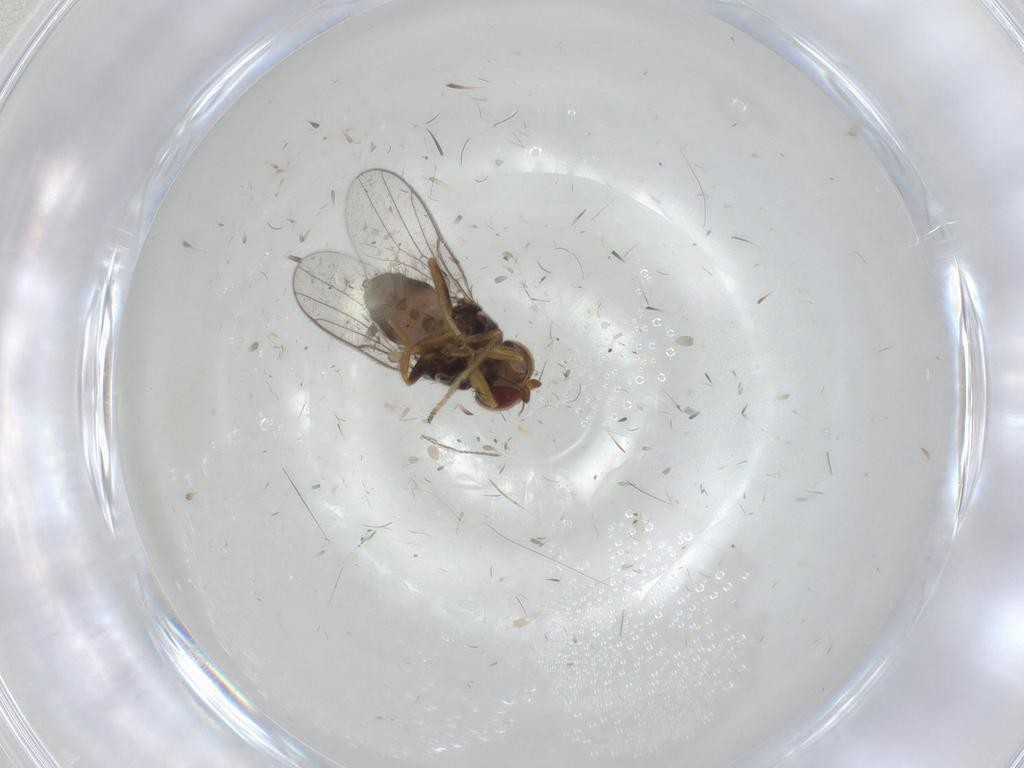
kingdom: Animalia
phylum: Arthropoda
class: Insecta
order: Diptera
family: Chloropidae
